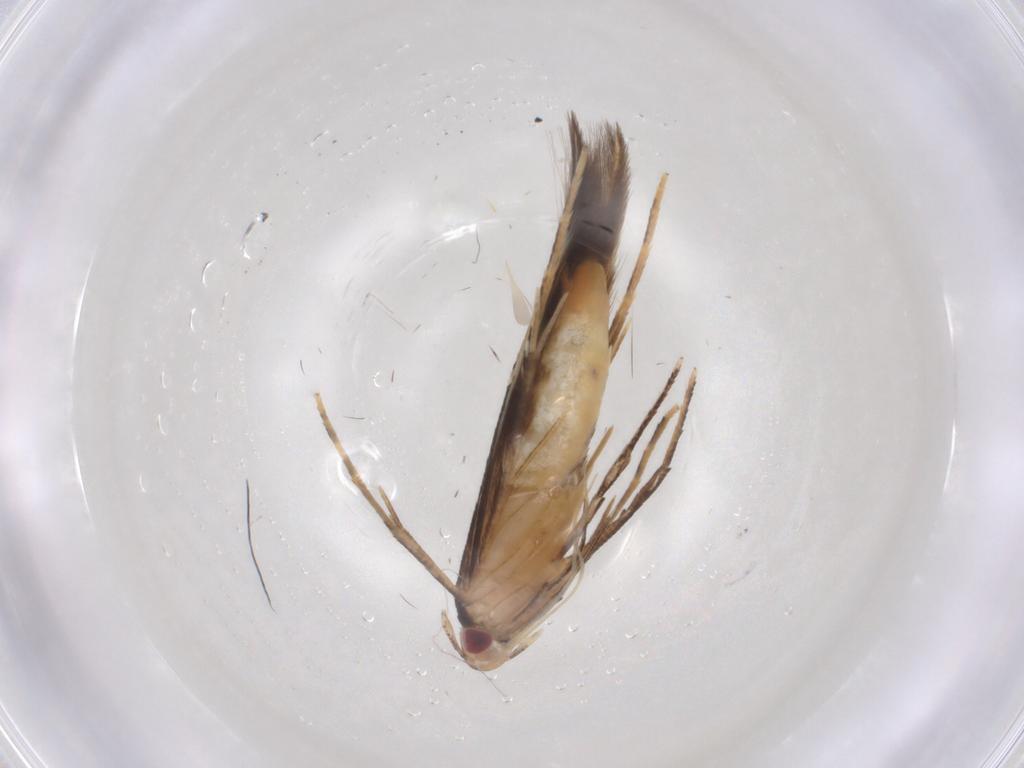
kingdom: Animalia
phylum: Arthropoda
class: Insecta
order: Lepidoptera
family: Cosmopterigidae
